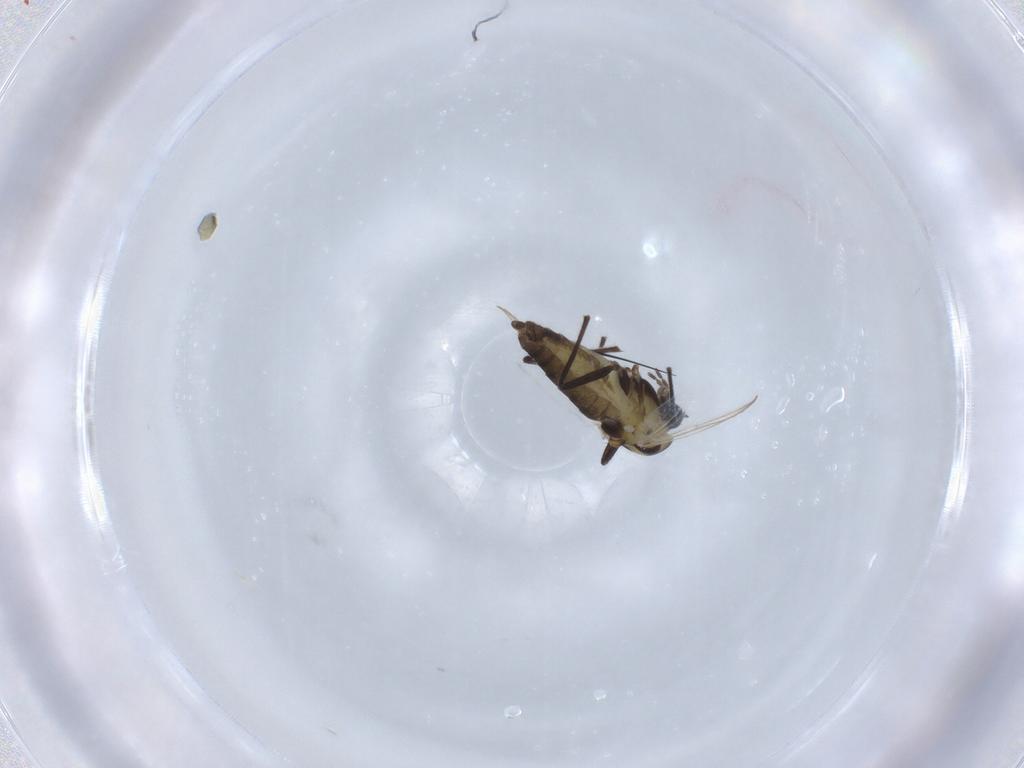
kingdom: Animalia
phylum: Arthropoda
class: Insecta
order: Diptera
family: Chironomidae
